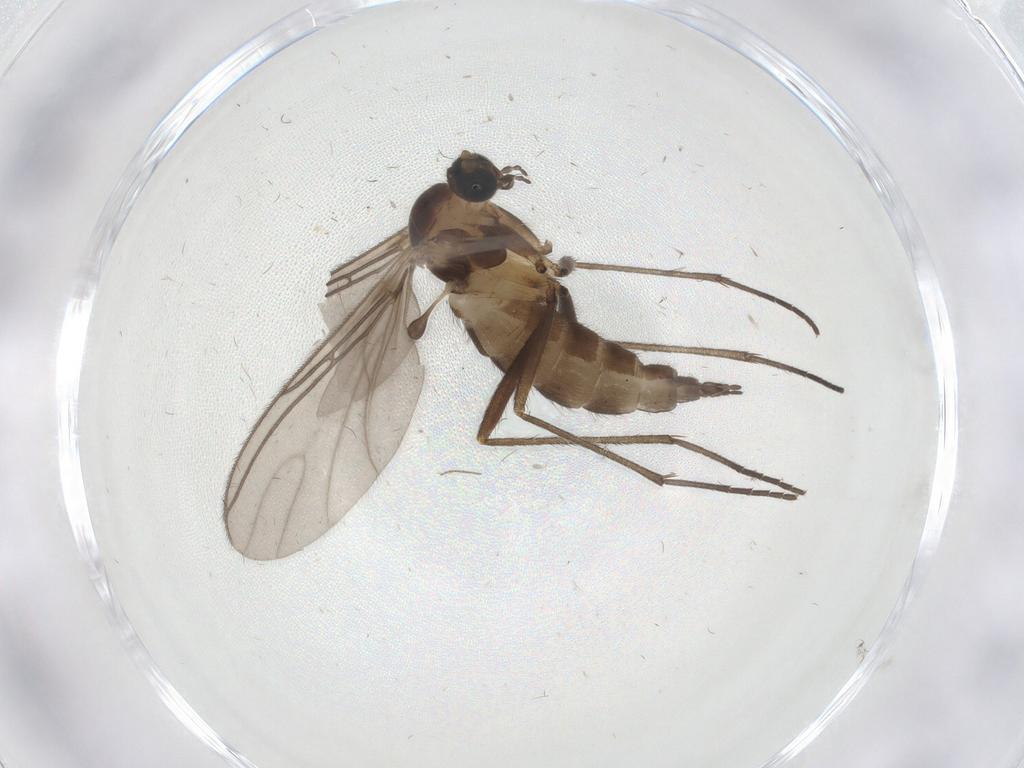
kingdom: Animalia
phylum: Arthropoda
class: Insecta
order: Diptera
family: Sciaridae
